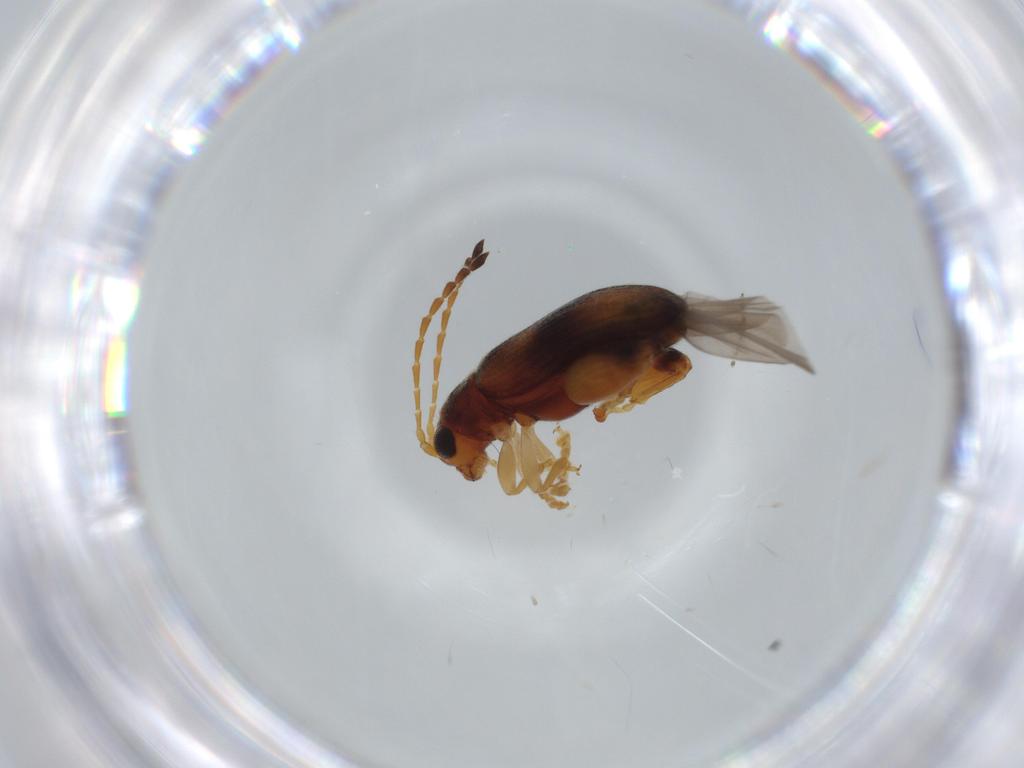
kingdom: Animalia
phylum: Arthropoda
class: Insecta
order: Coleoptera
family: Chrysomelidae
